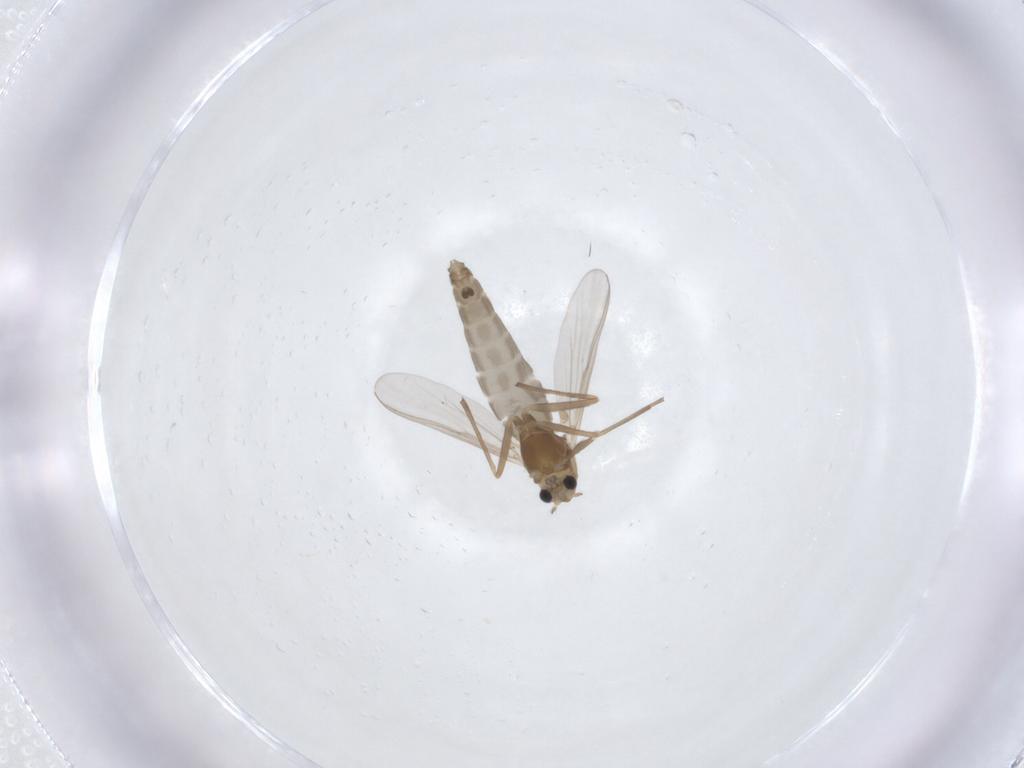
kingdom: Animalia
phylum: Arthropoda
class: Insecta
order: Diptera
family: Chironomidae
